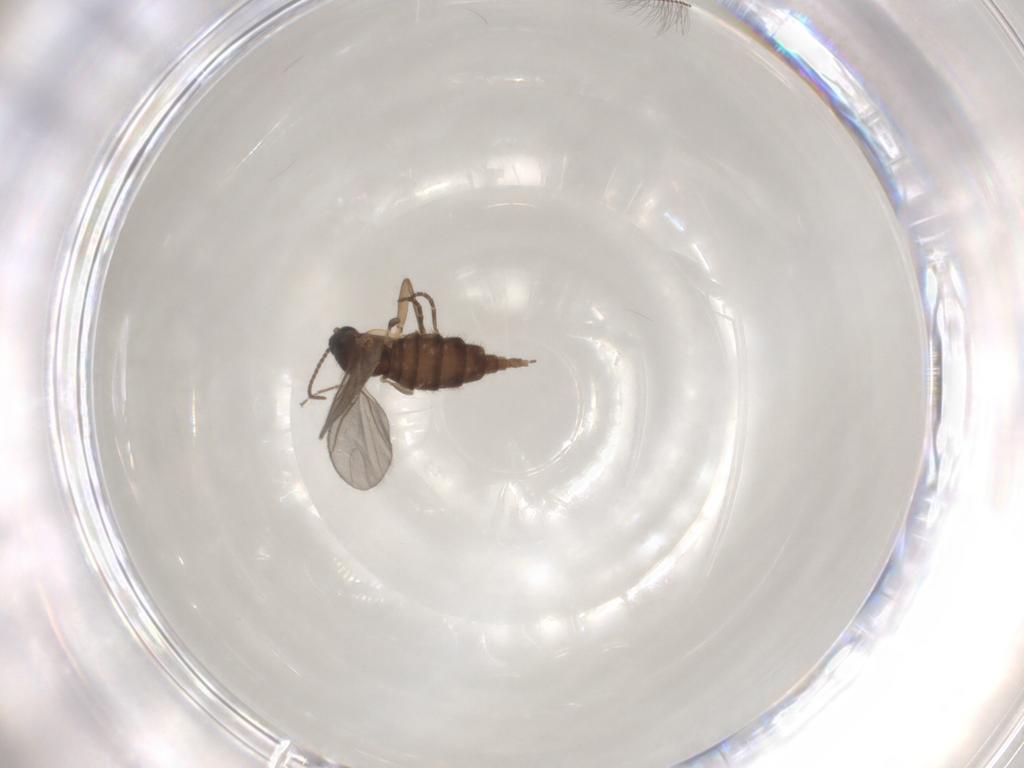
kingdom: Animalia
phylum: Arthropoda
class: Insecta
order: Diptera
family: Sciaridae
